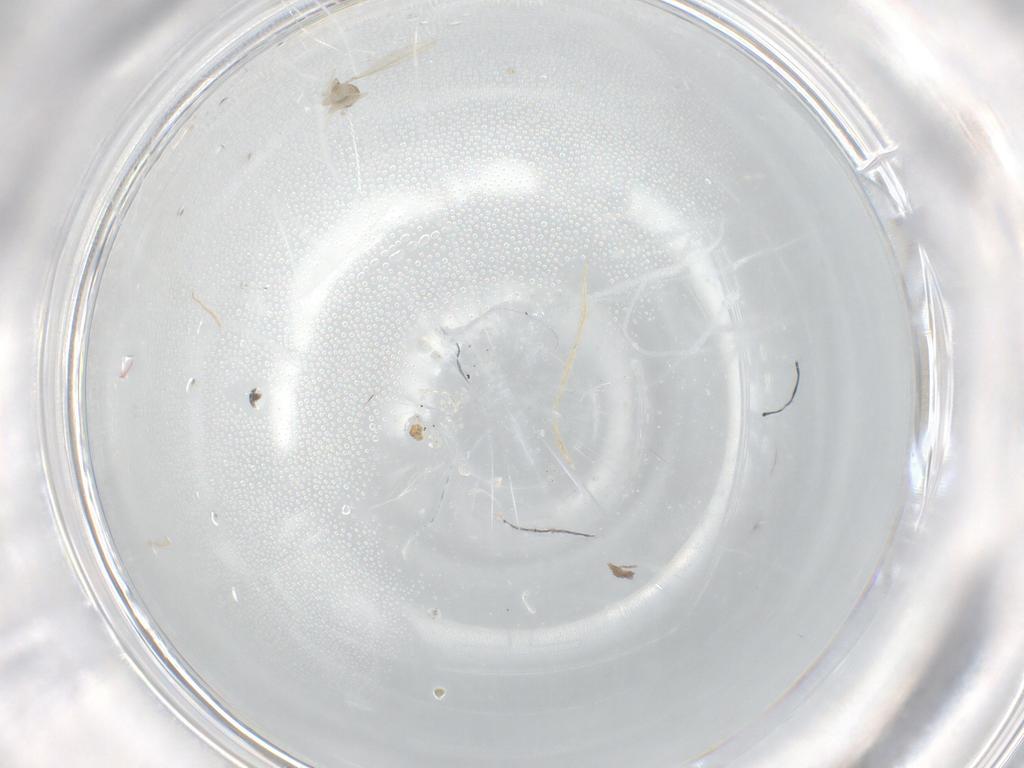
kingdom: Animalia
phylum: Arthropoda
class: Insecta
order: Diptera
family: Cecidomyiidae
